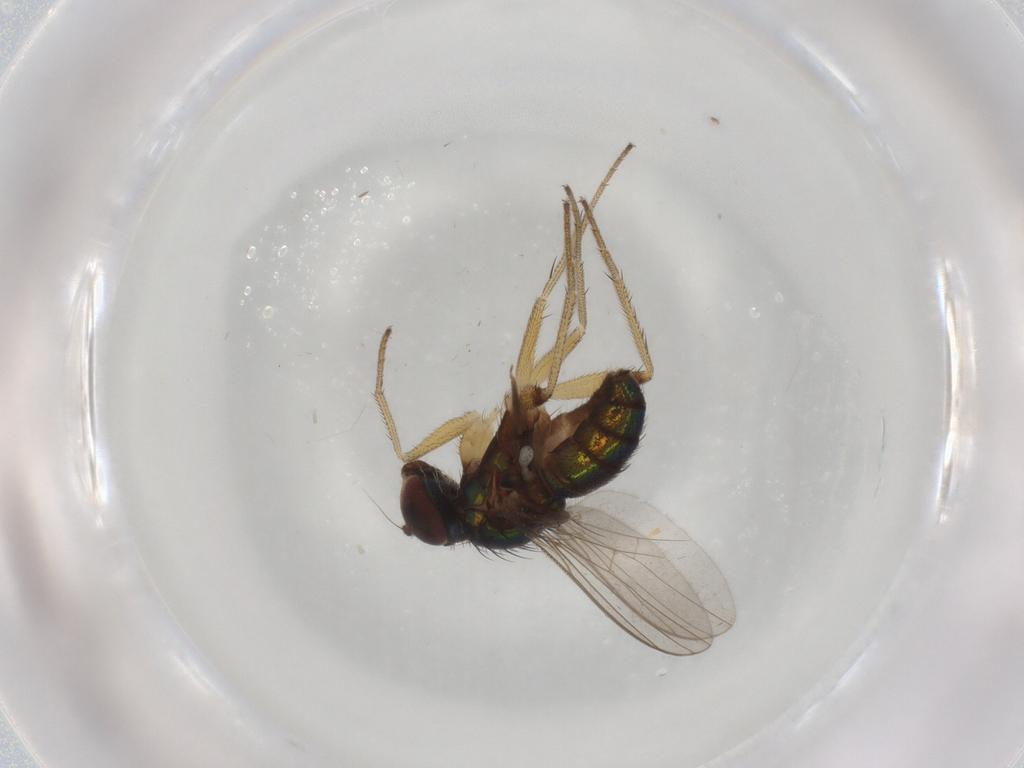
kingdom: Animalia
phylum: Arthropoda
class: Insecta
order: Diptera
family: Dolichopodidae
